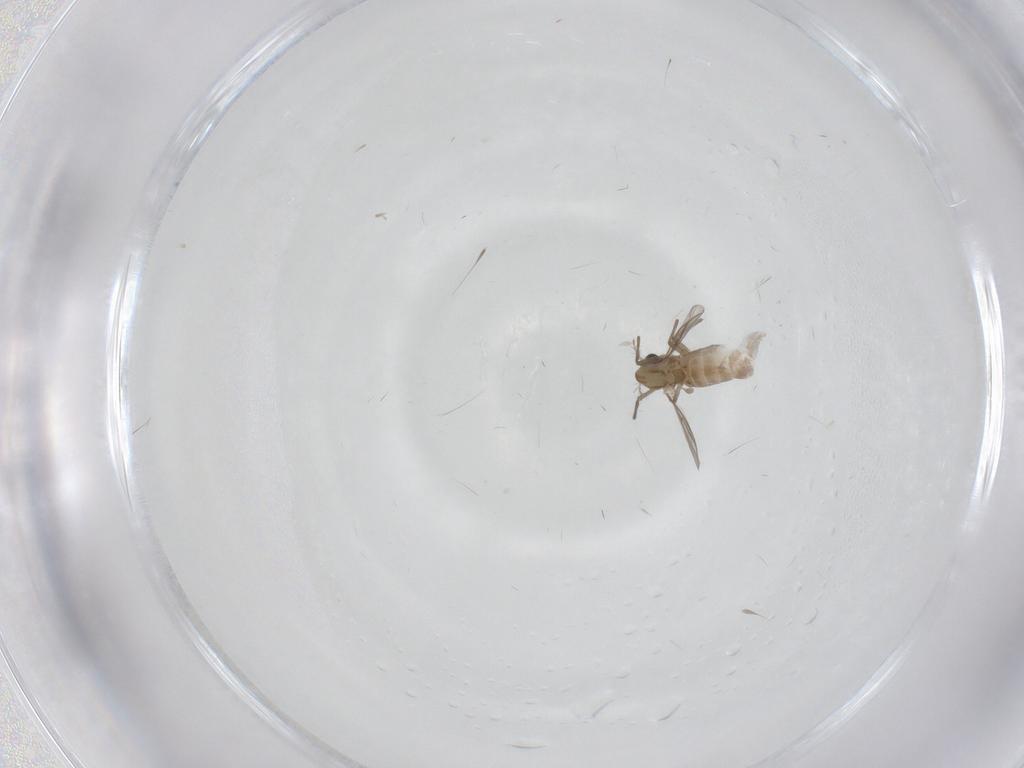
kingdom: Animalia
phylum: Arthropoda
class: Insecta
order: Diptera
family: Chironomidae
